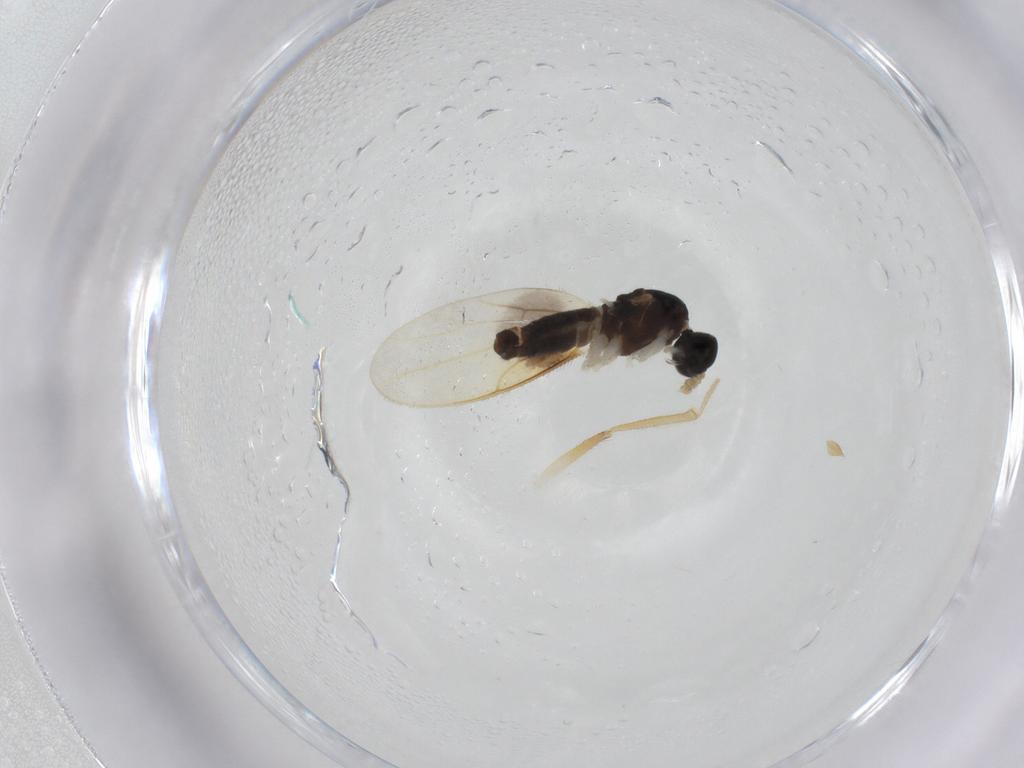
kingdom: Animalia
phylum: Arthropoda
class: Insecta
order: Diptera
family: Empididae
